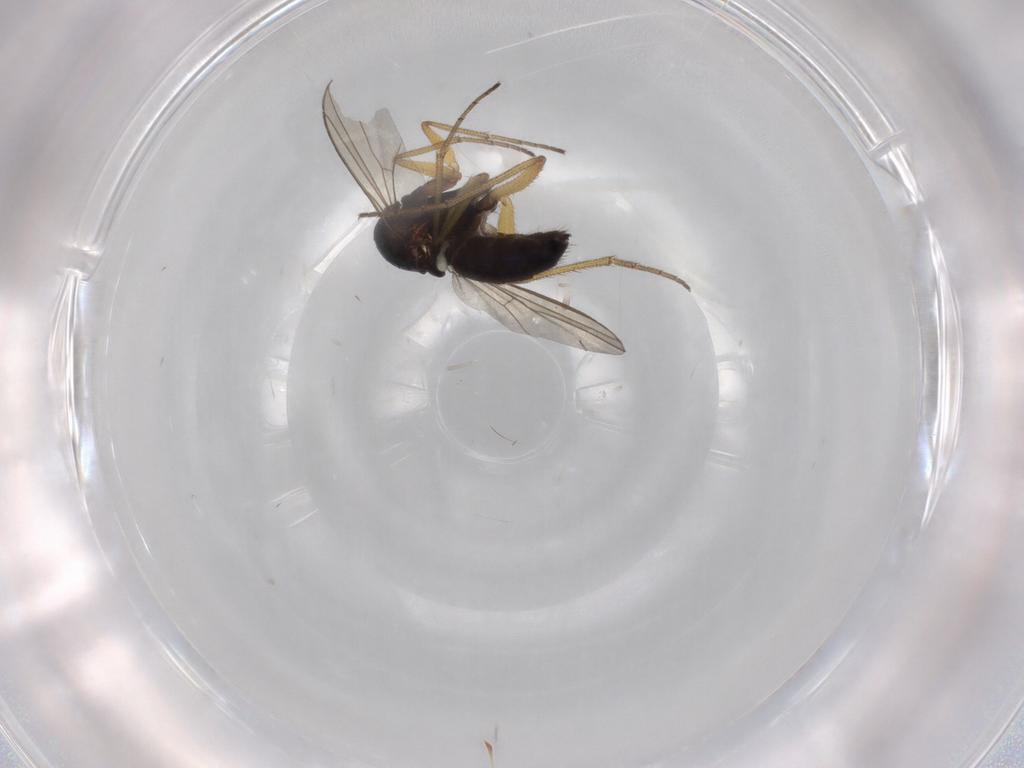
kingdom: Animalia
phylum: Arthropoda
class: Insecta
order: Diptera
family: Dolichopodidae
